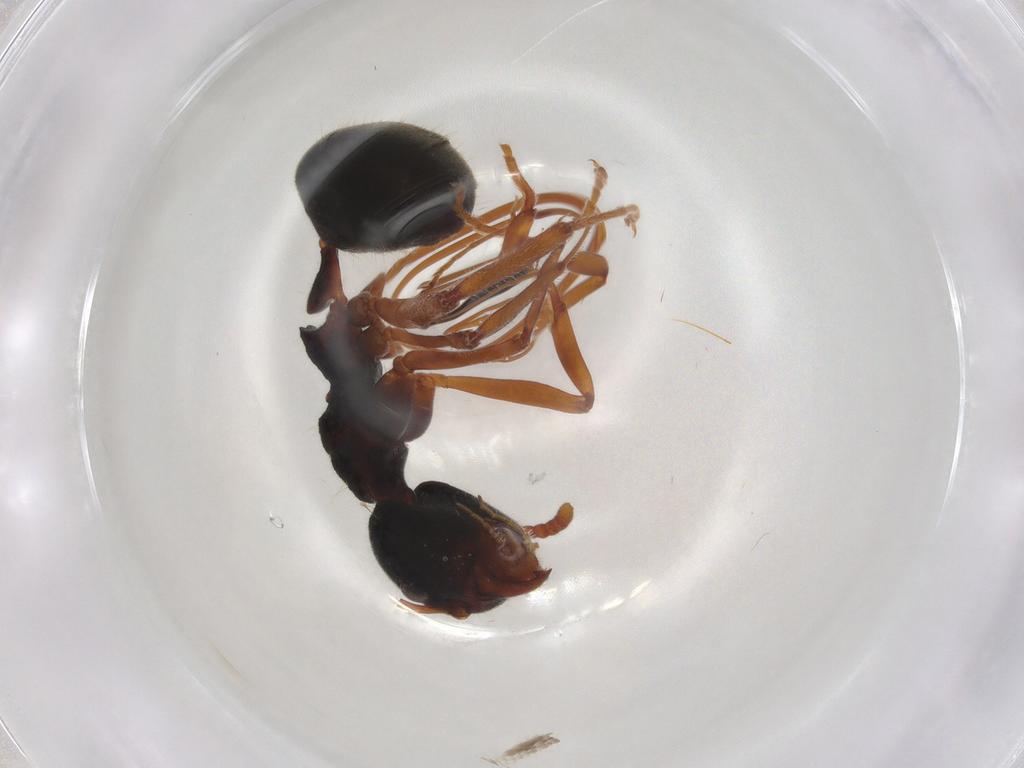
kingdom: Animalia
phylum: Arthropoda
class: Insecta
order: Hymenoptera
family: Formicidae
